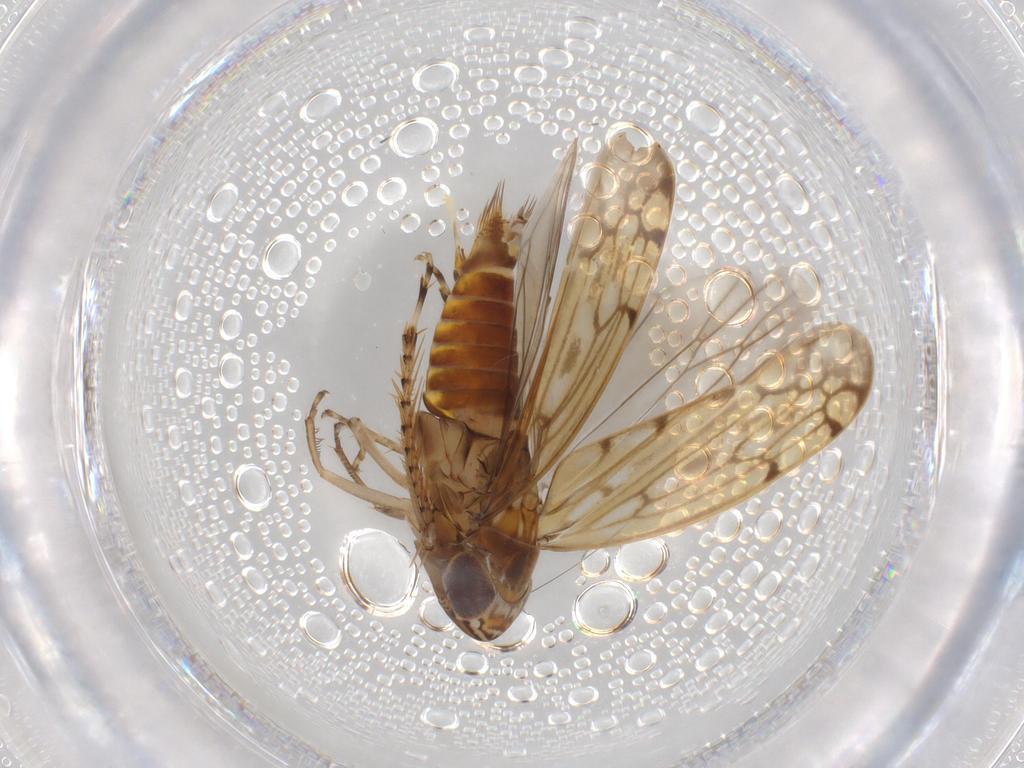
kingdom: Animalia
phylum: Arthropoda
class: Insecta
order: Hemiptera
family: Cicadellidae
